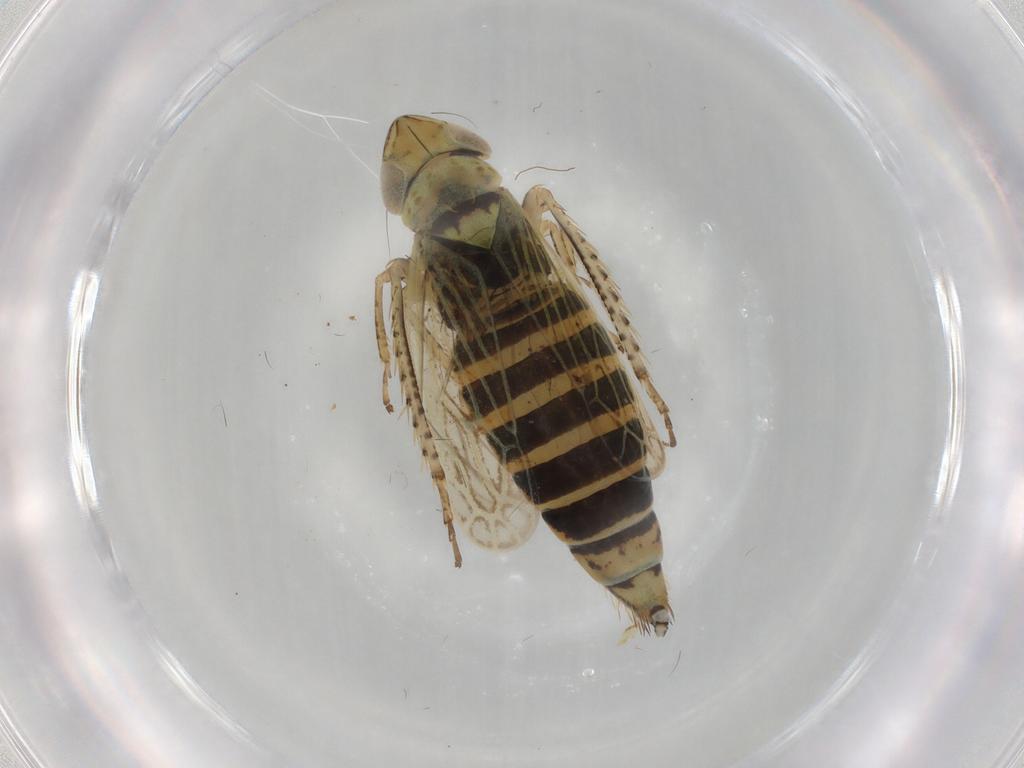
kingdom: Animalia
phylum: Arthropoda
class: Insecta
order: Hemiptera
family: Cicadellidae
